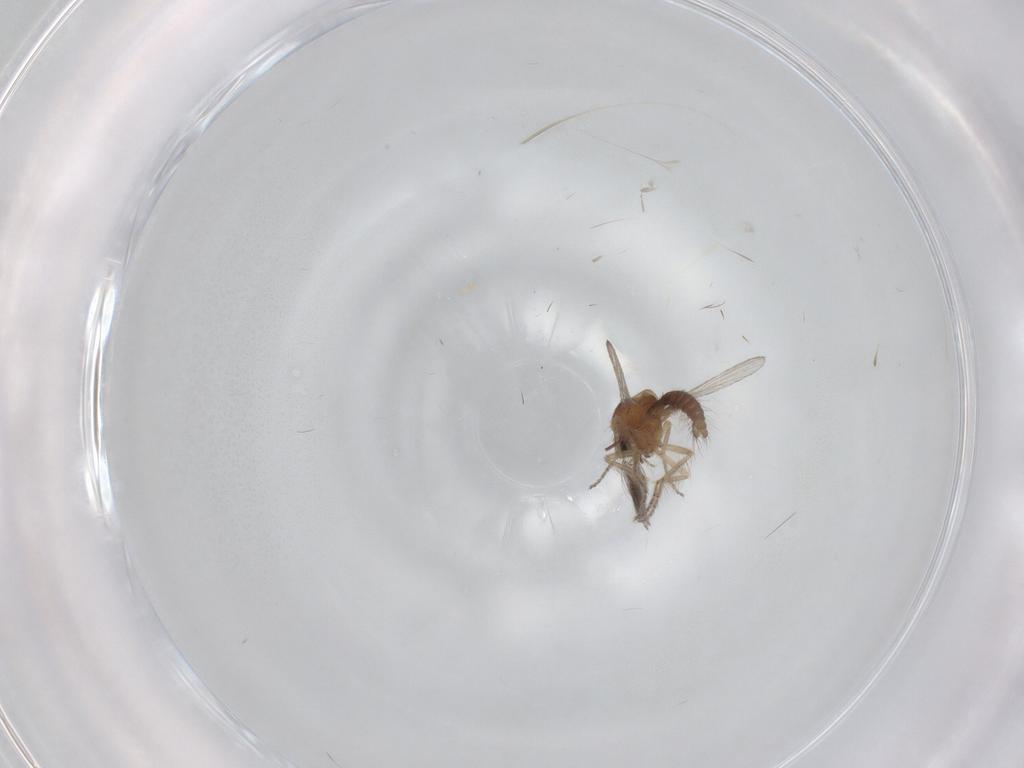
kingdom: Animalia
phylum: Arthropoda
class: Insecta
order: Diptera
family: Ceratopogonidae
